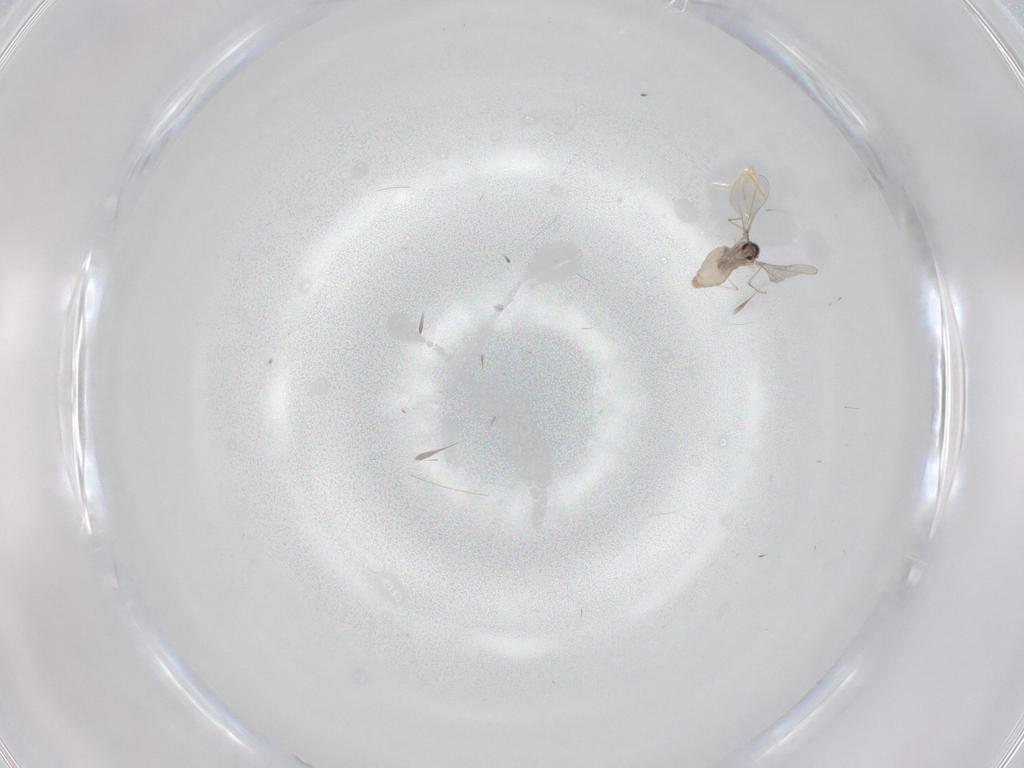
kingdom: Animalia
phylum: Arthropoda
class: Insecta
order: Diptera
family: Cecidomyiidae
